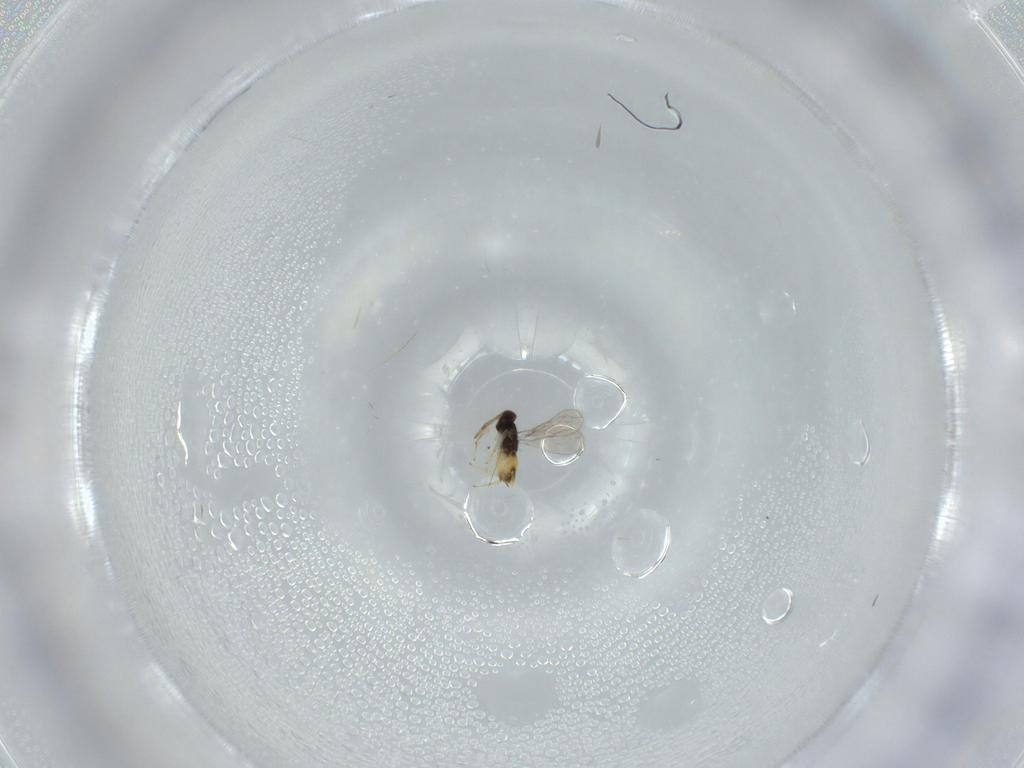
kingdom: Animalia
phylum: Arthropoda
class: Insecta
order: Hymenoptera
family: Aphelinidae
